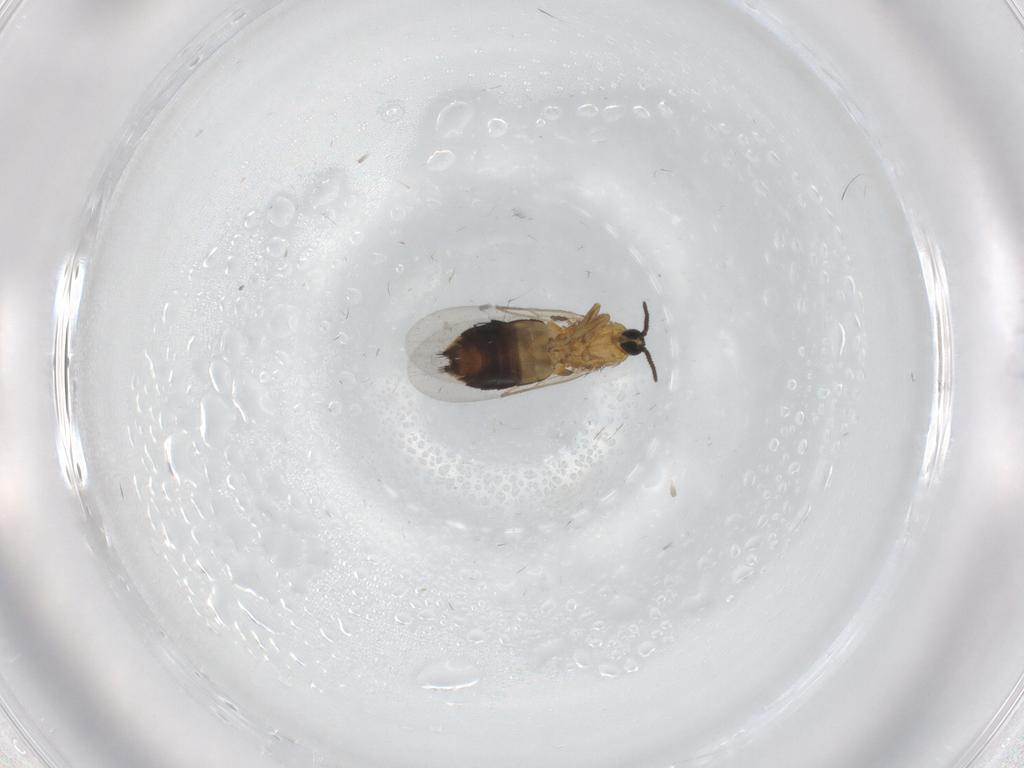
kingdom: Animalia
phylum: Arthropoda
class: Insecta
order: Diptera
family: Scatopsidae
